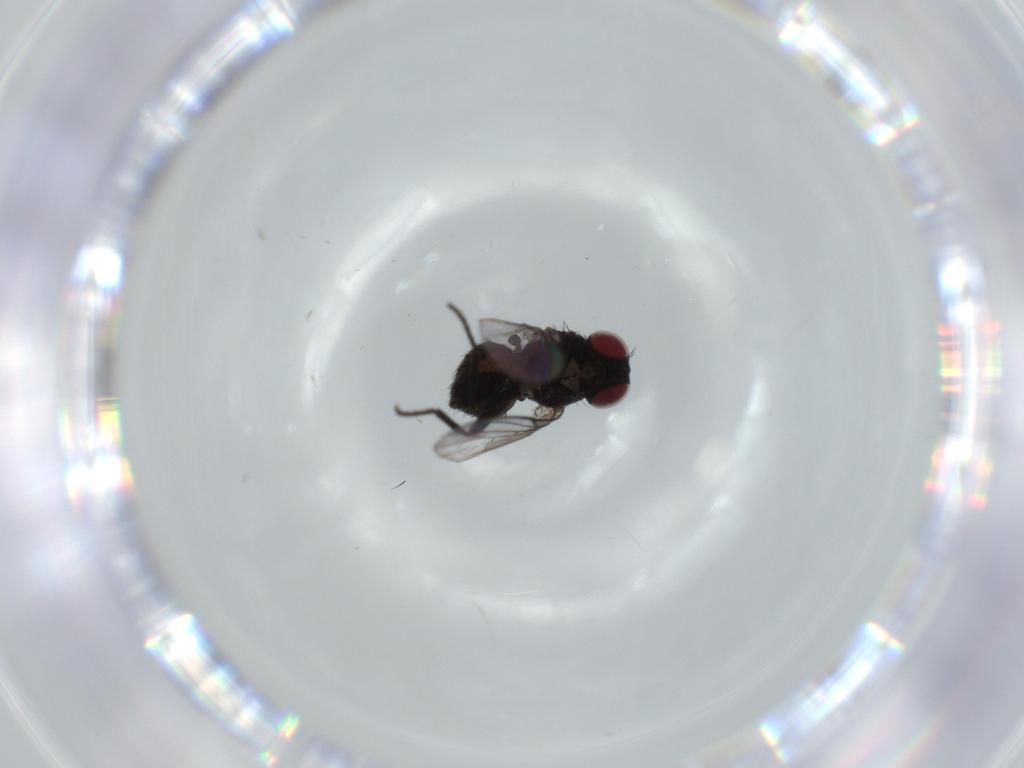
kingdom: Animalia
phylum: Arthropoda
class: Insecta
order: Diptera
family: Agromyzidae
